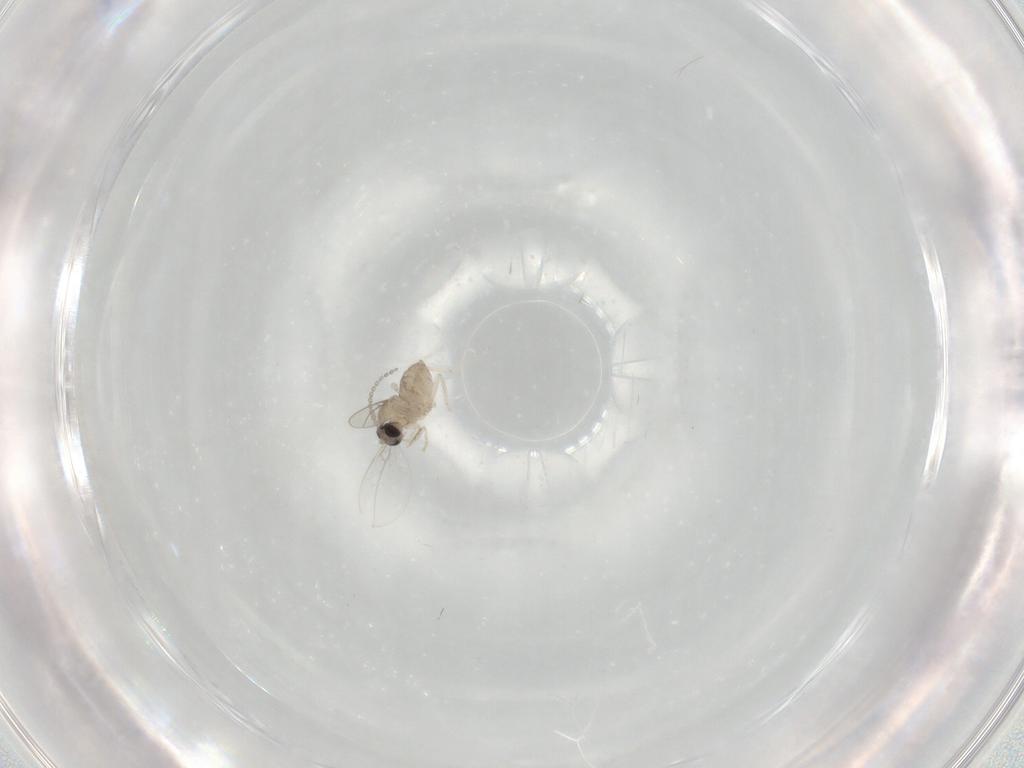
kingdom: Animalia
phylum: Arthropoda
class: Insecta
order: Diptera
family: Cecidomyiidae
